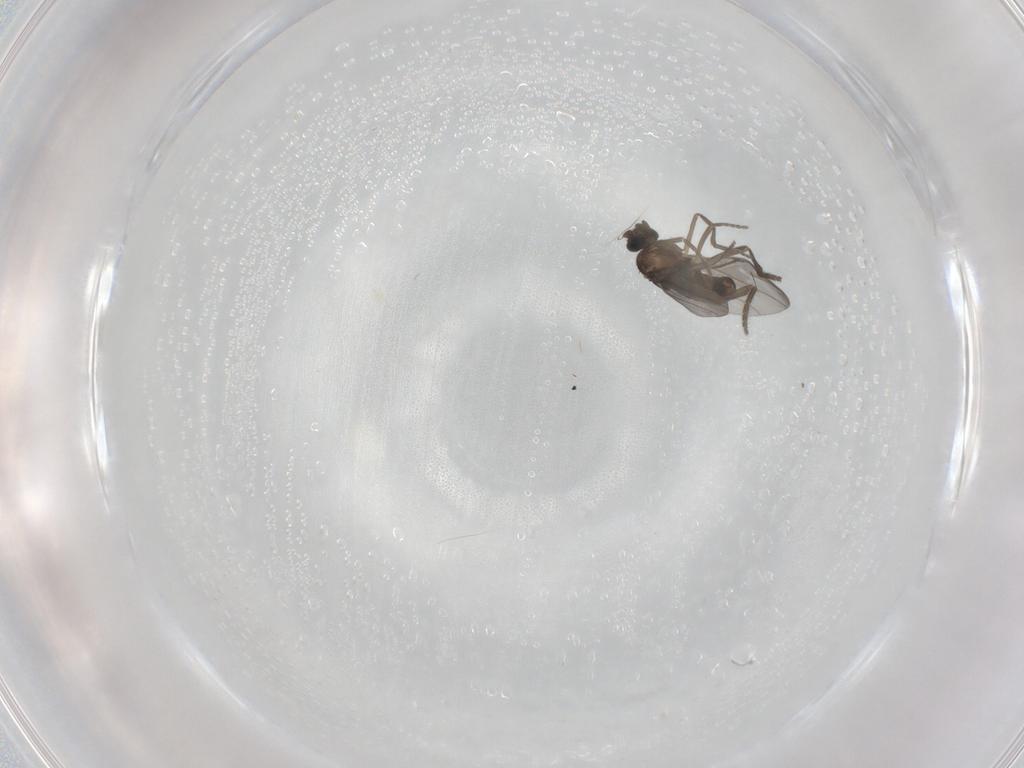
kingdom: Animalia
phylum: Arthropoda
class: Insecta
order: Diptera
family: Phoridae
